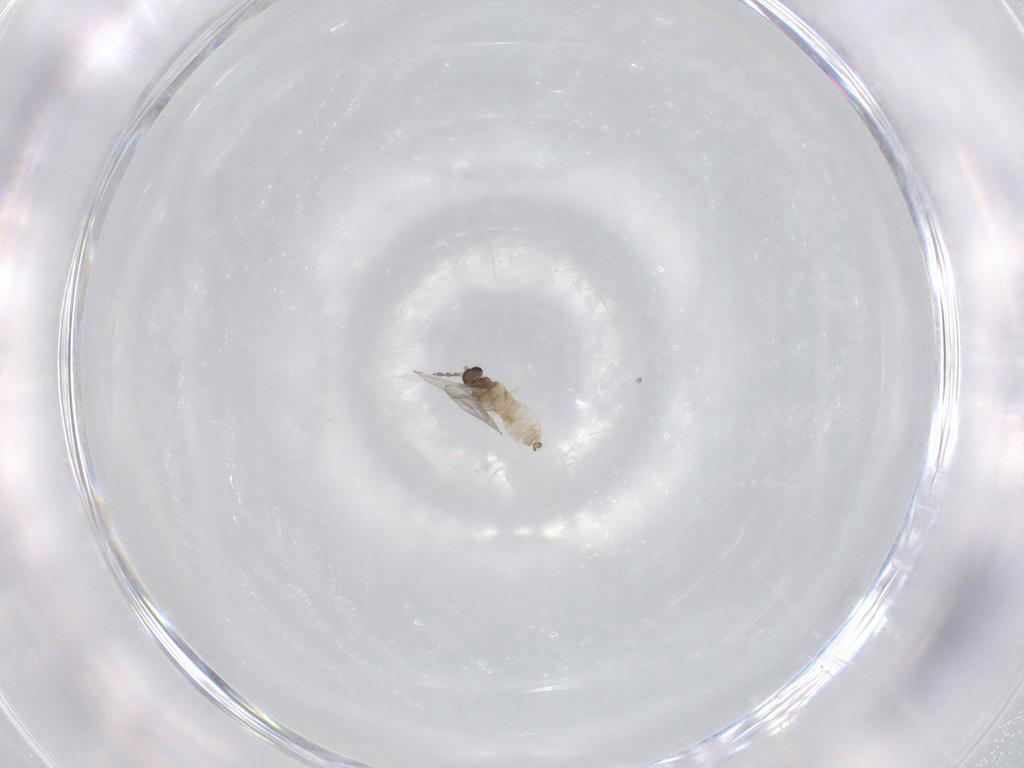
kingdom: Animalia
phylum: Arthropoda
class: Insecta
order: Diptera
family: Cecidomyiidae
